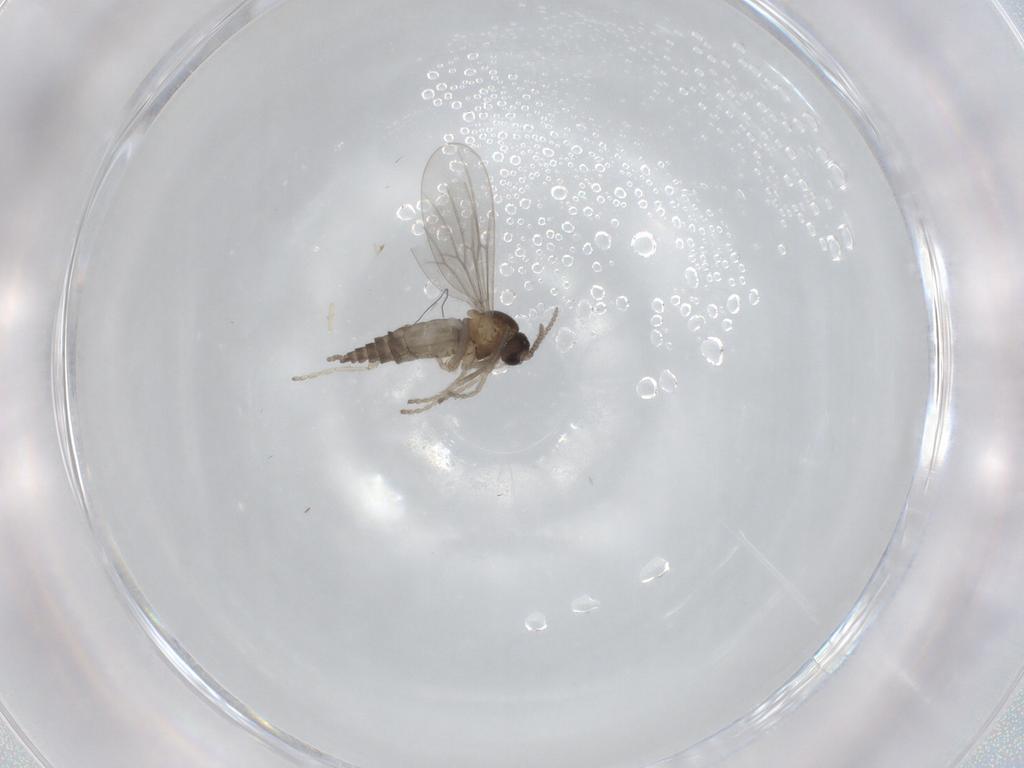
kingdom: Animalia
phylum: Arthropoda
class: Insecta
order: Diptera
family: Cecidomyiidae
